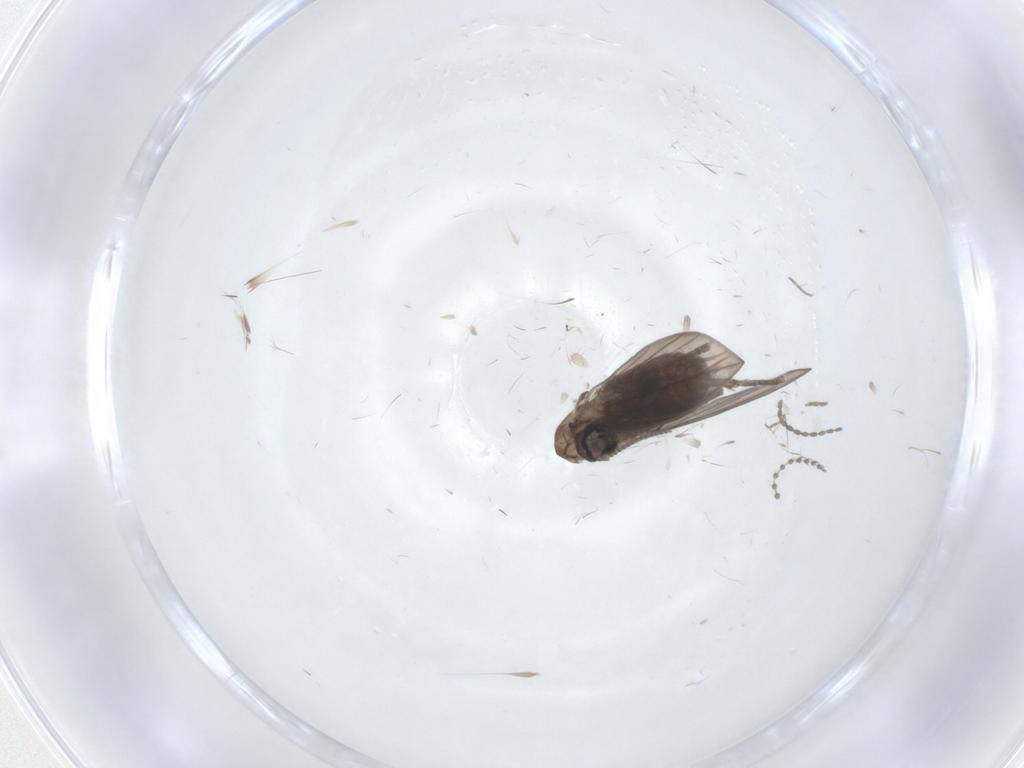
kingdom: Animalia
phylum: Arthropoda
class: Insecta
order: Diptera
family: Psychodidae
